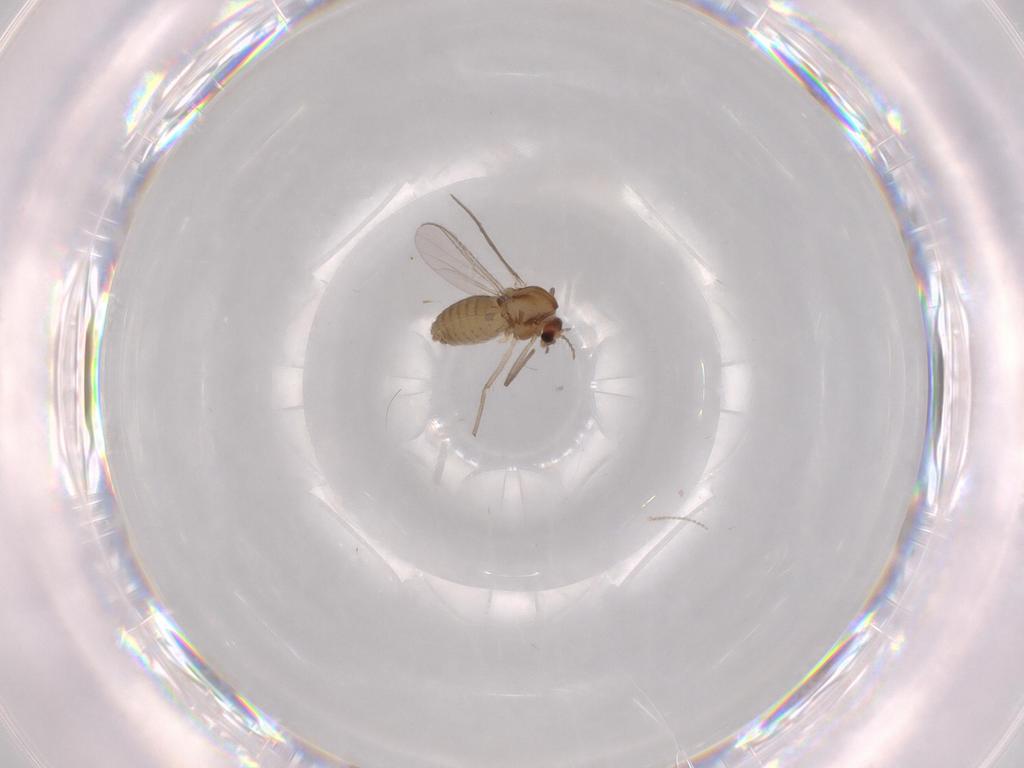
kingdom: Animalia
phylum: Arthropoda
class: Insecta
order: Diptera
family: Chironomidae
